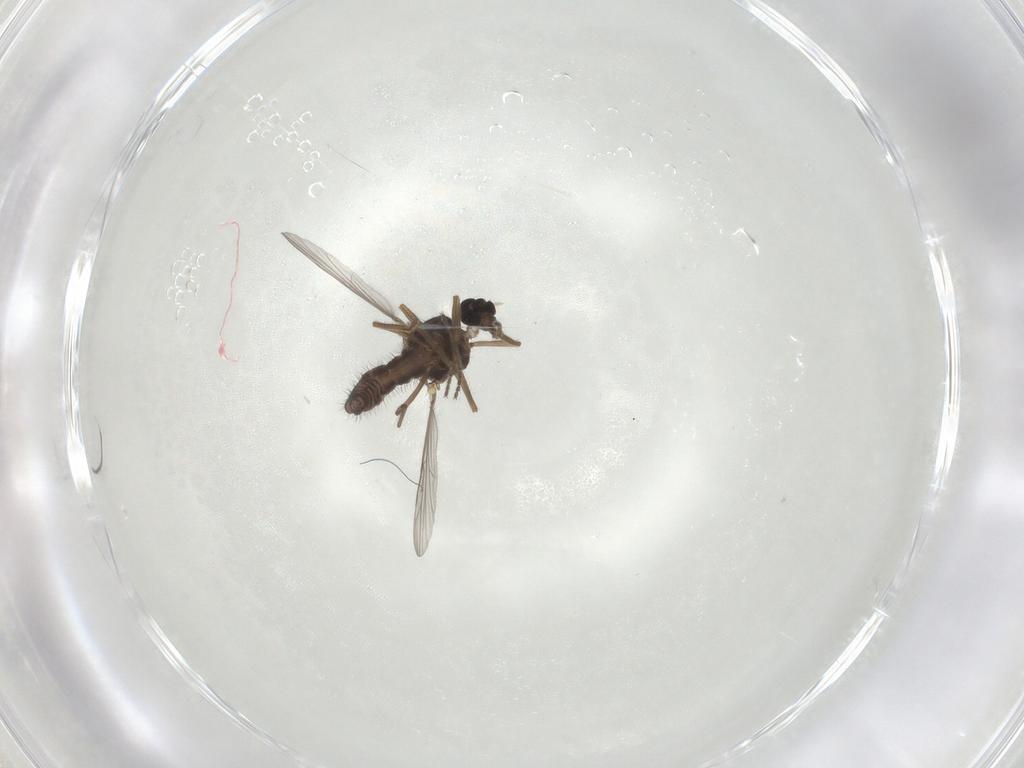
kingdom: Animalia
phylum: Arthropoda
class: Insecta
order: Diptera
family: Ceratopogonidae
